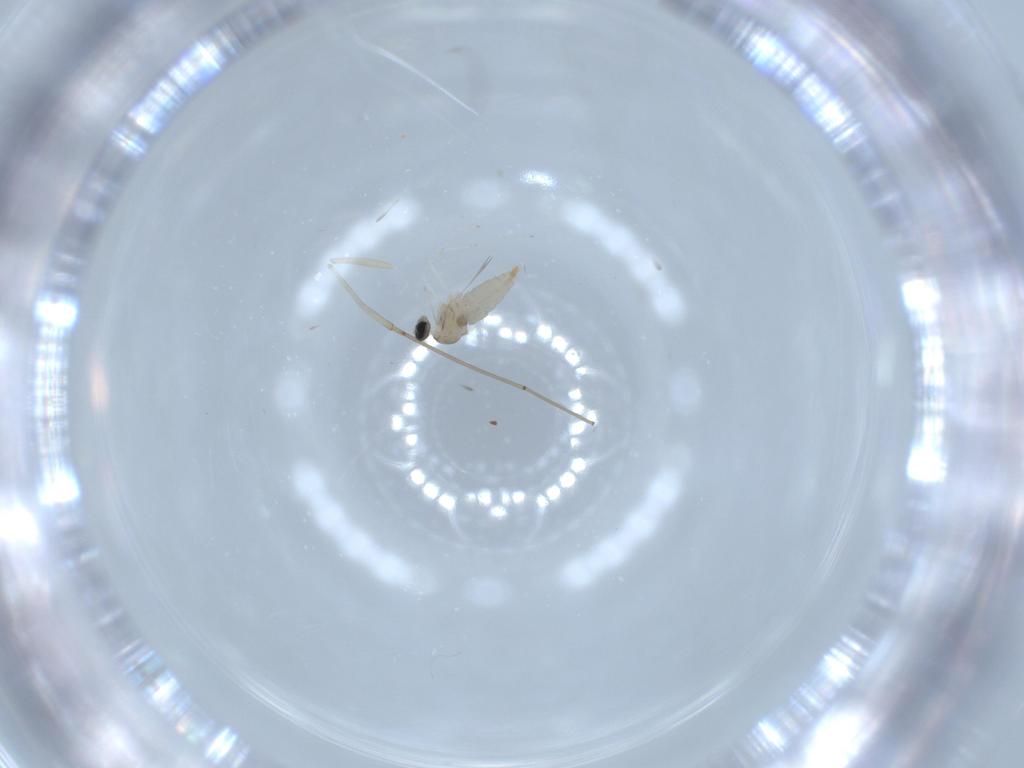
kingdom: Animalia
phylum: Arthropoda
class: Insecta
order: Diptera
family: Cecidomyiidae
